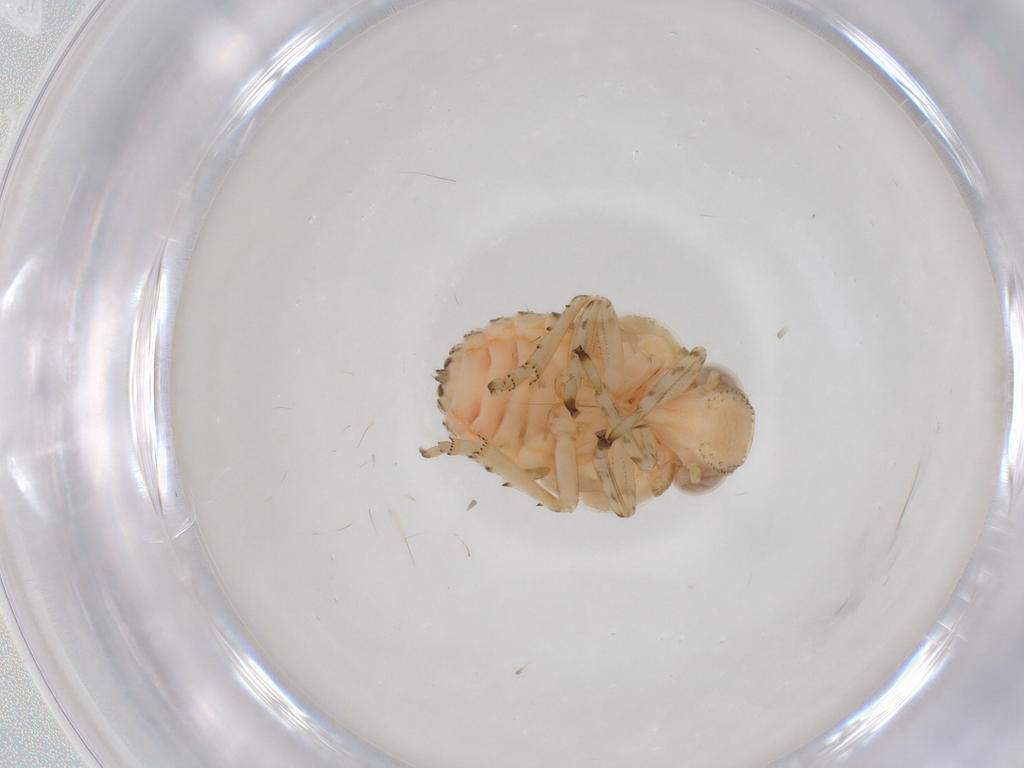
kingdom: Animalia
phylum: Arthropoda
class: Insecta
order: Hemiptera
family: Issidae
